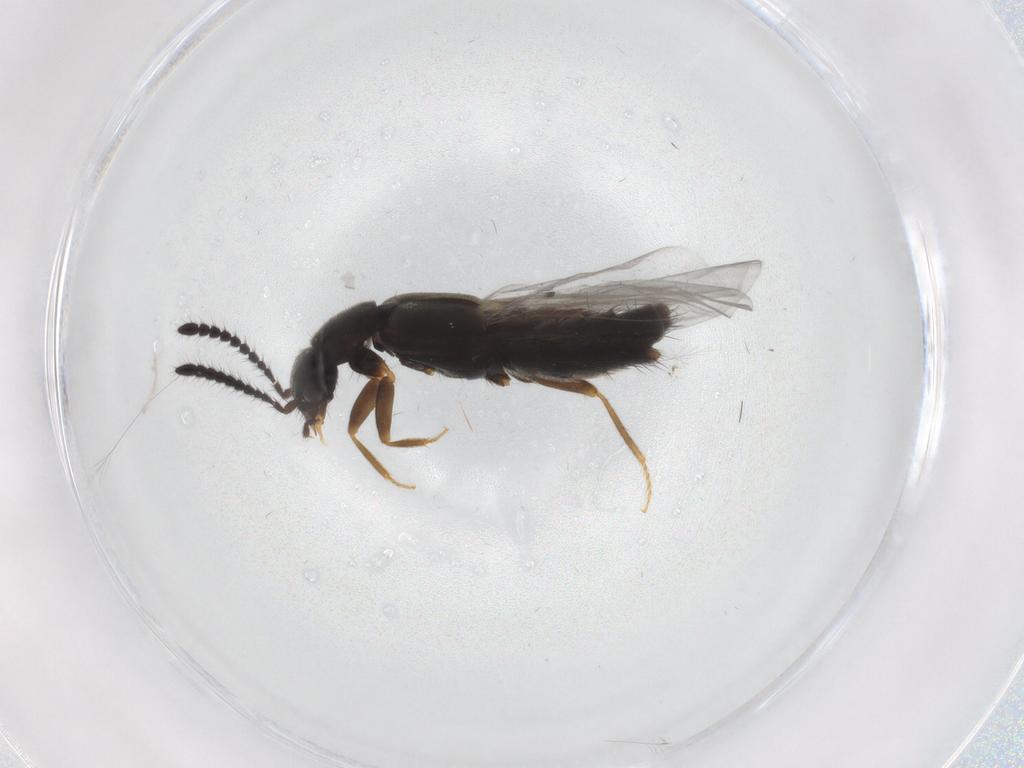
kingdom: Animalia
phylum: Arthropoda
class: Insecta
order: Coleoptera
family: Staphylinidae
